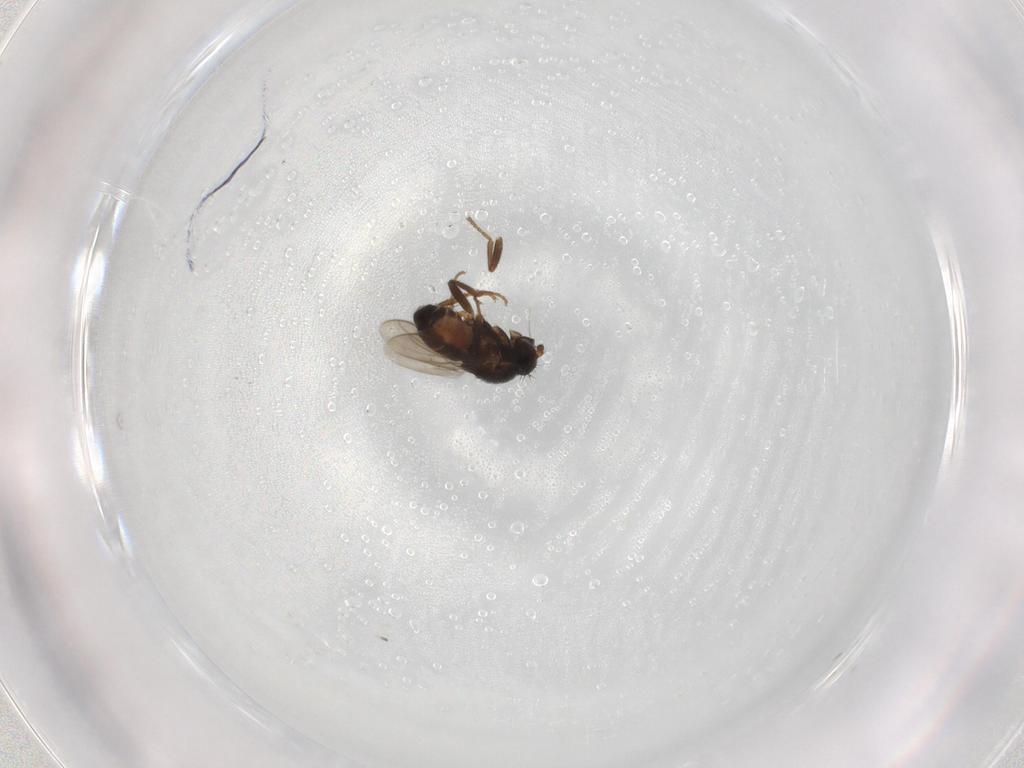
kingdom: Animalia
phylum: Arthropoda
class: Insecta
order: Diptera
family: Sphaeroceridae
